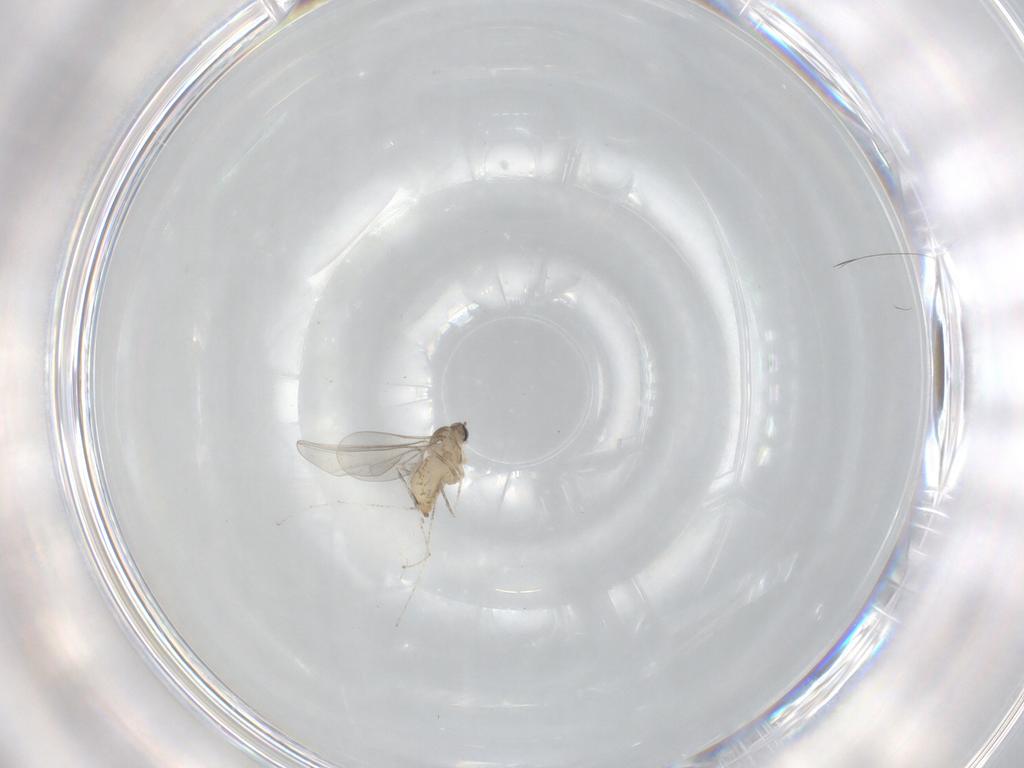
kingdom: Animalia
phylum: Arthropoda
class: Insecta
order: Diptera
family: Cecidomyiidae
